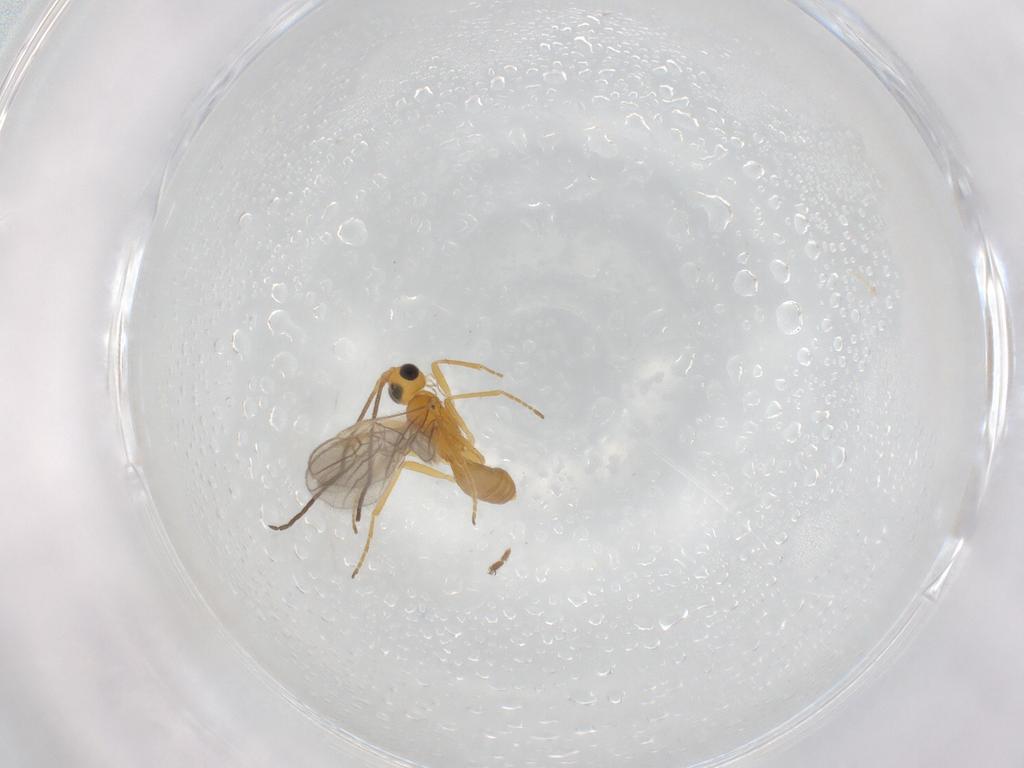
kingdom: Animalia
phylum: Arthropoda
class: Insecta
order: Hymenoptera
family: Braconidae
